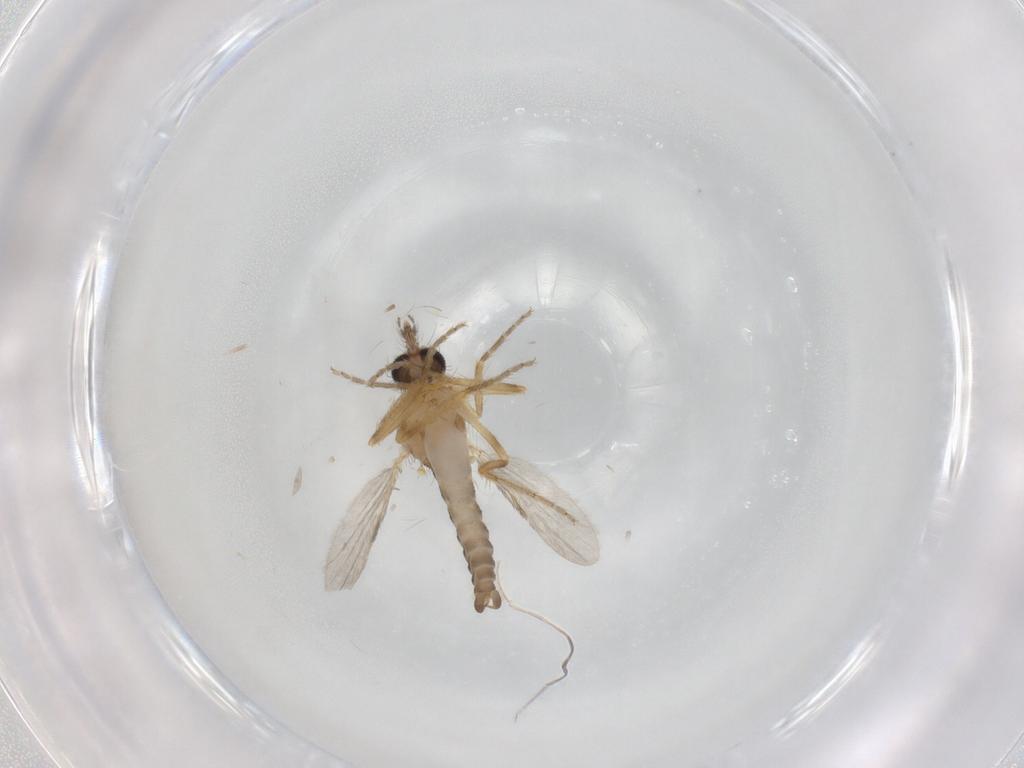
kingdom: Animalia
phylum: Arthropoda
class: Insecta
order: Diptera
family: Ceratopogonidae
